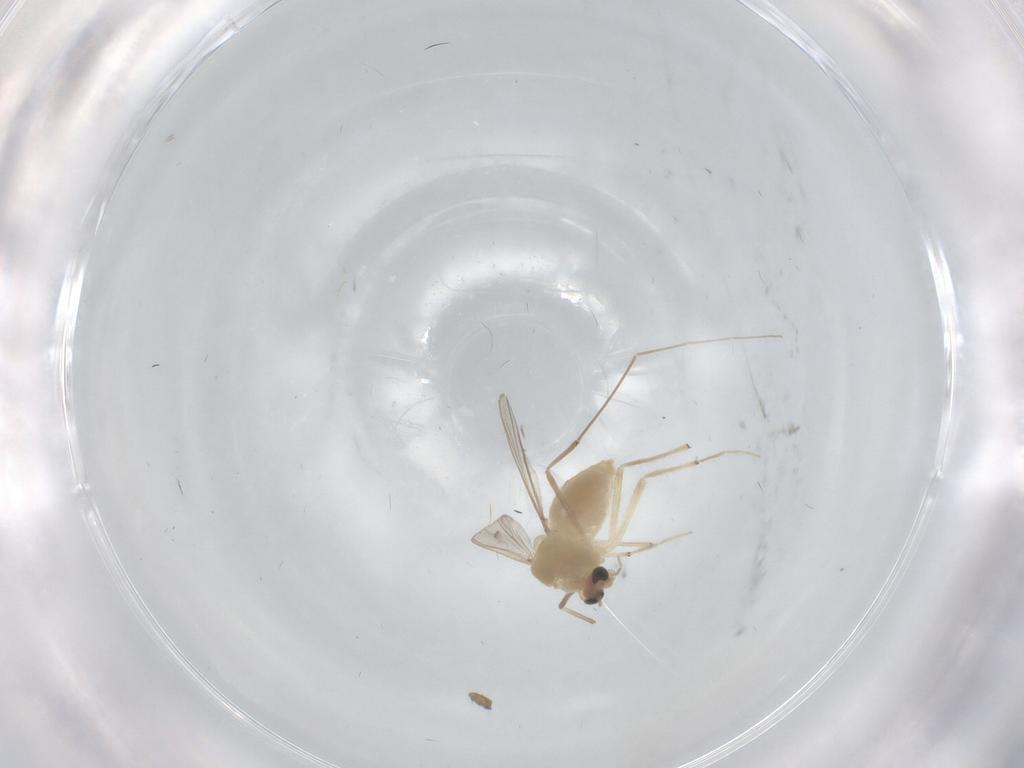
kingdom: Animalia
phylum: Arthropoda
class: Insecta
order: Diptera
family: Chironomidae
